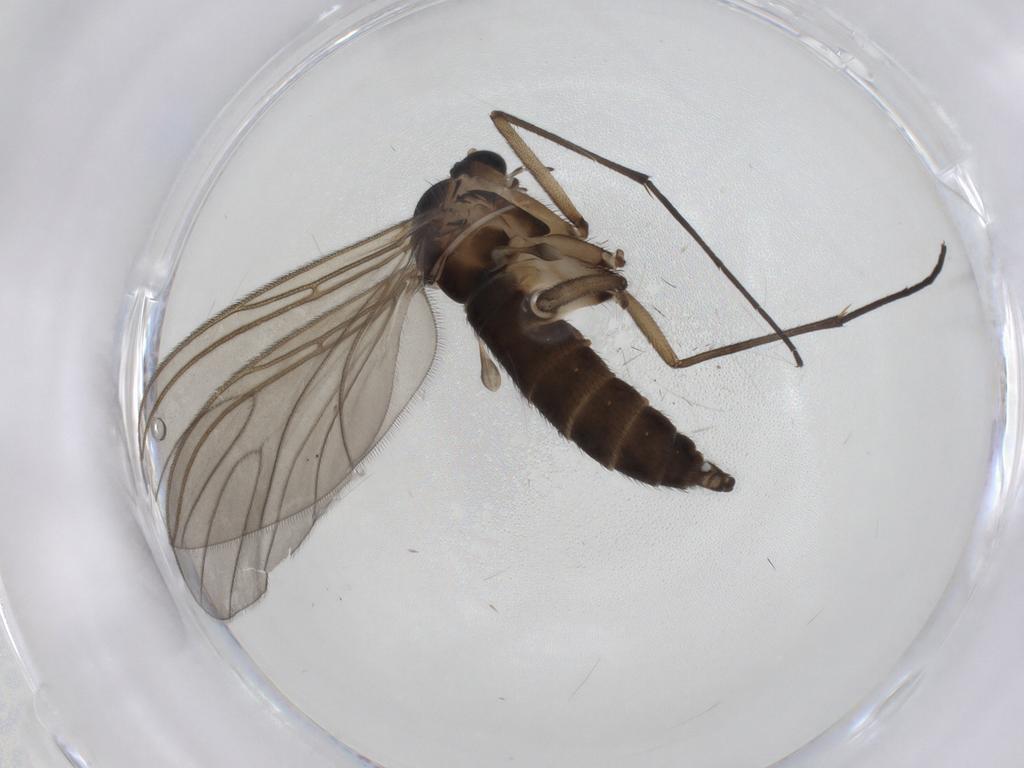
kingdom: Animalia
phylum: Arthropoda
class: Insecta
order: Diptera
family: Sciaridae
